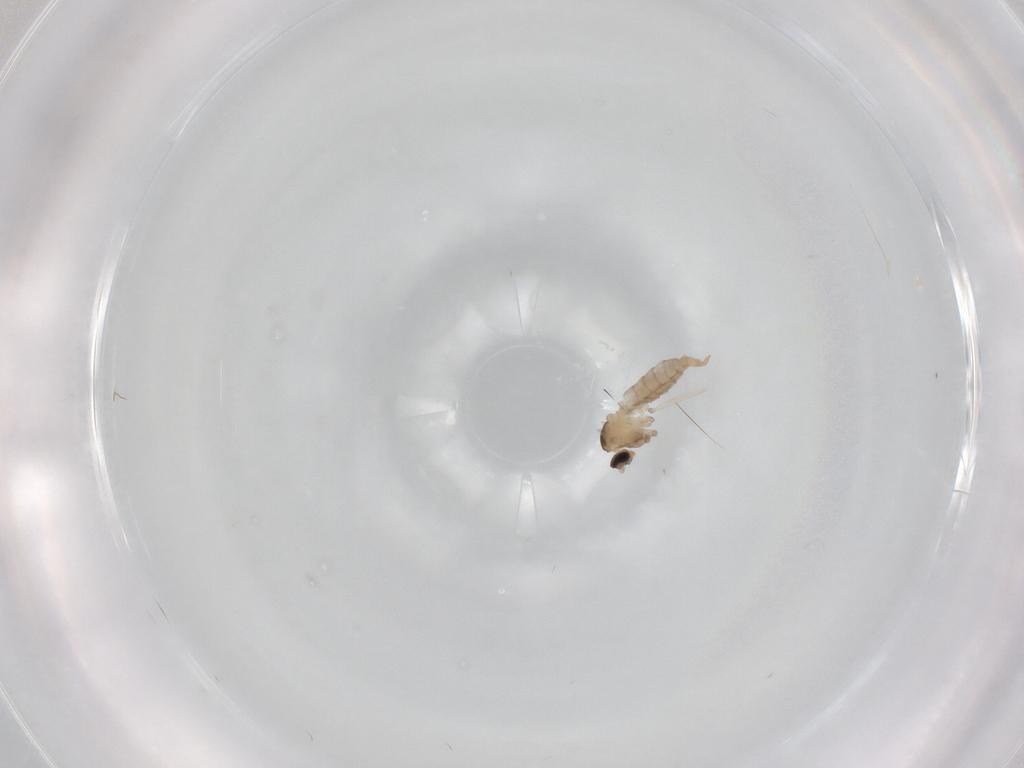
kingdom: Animalia
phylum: Arthropoda
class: Insecta
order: Diptera
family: Cecidomyiidae
